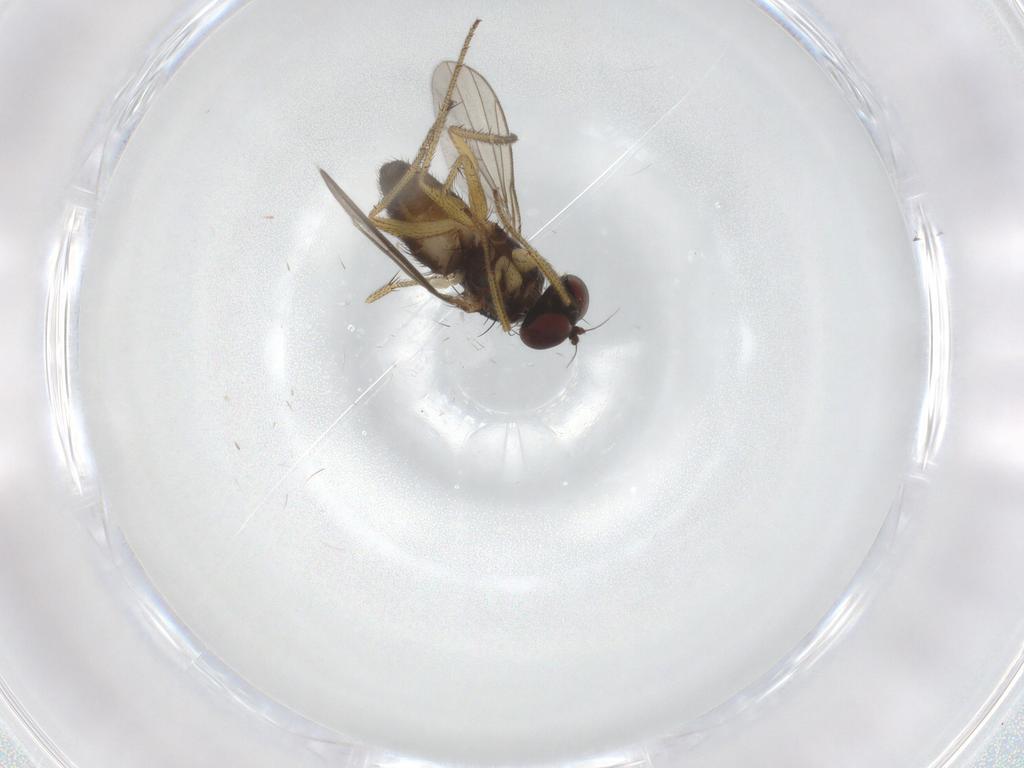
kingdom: Animalia
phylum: Arthropoda
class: Insecta
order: Diptera
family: Dolichopodidae
